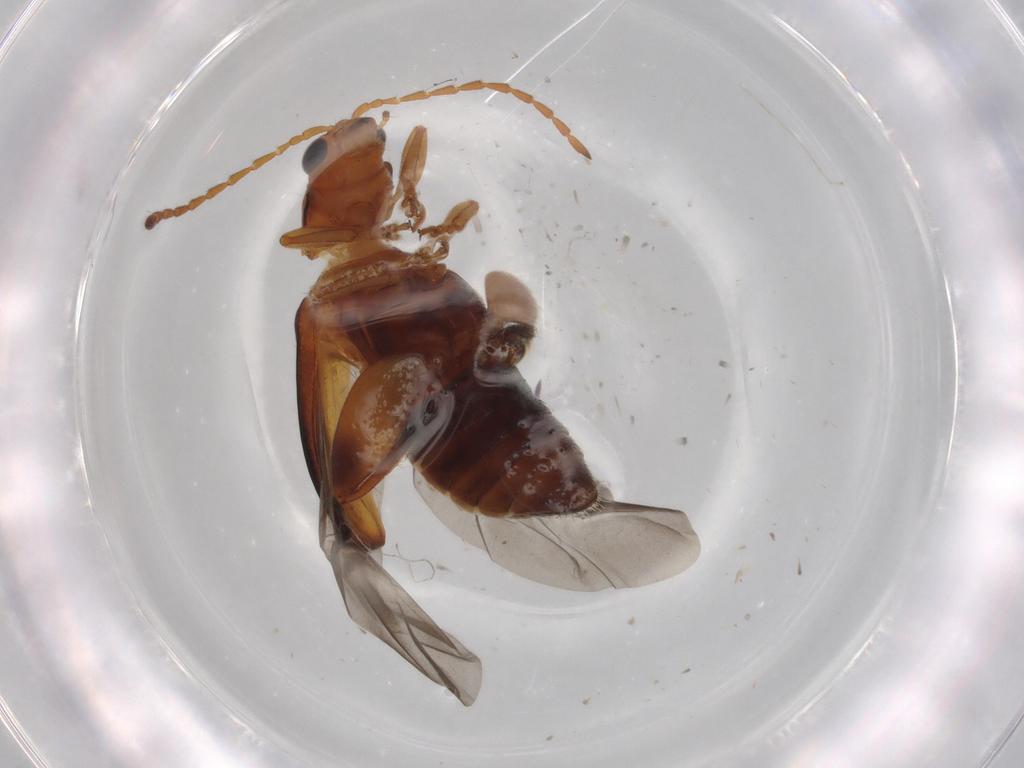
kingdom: Animalia
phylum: Arthropoda
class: Insecta
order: Coleoptera
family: Chrysomelidae
